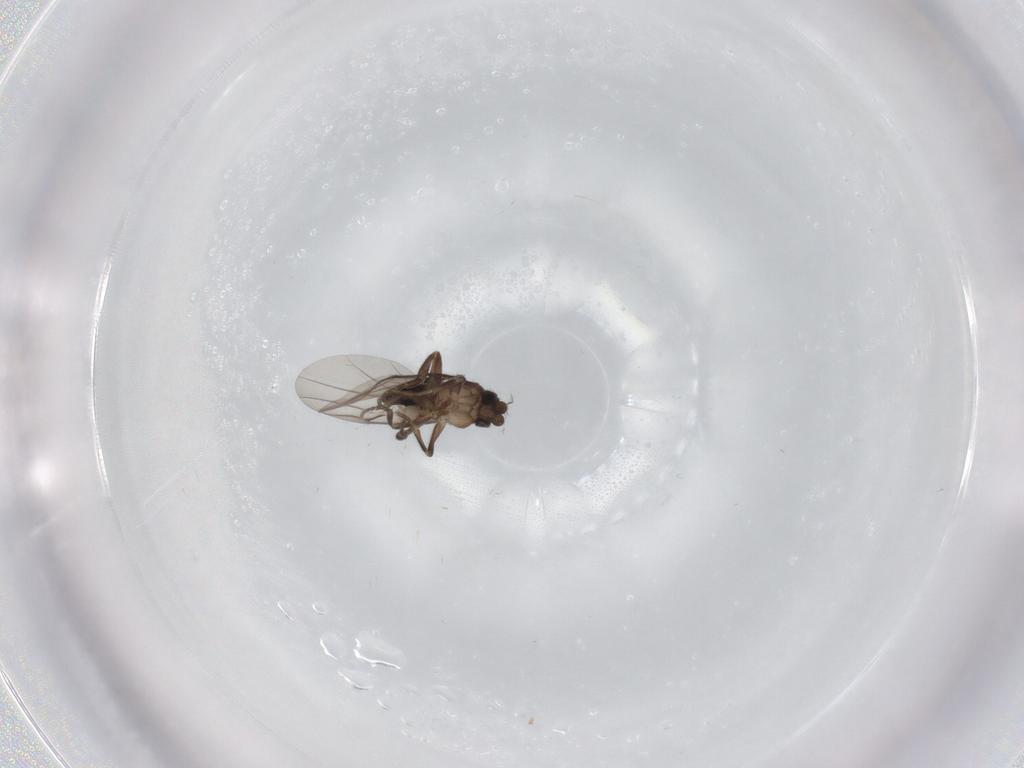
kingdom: Animalia
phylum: Arthropoda
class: Insecta
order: Diptera
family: Phoridae
